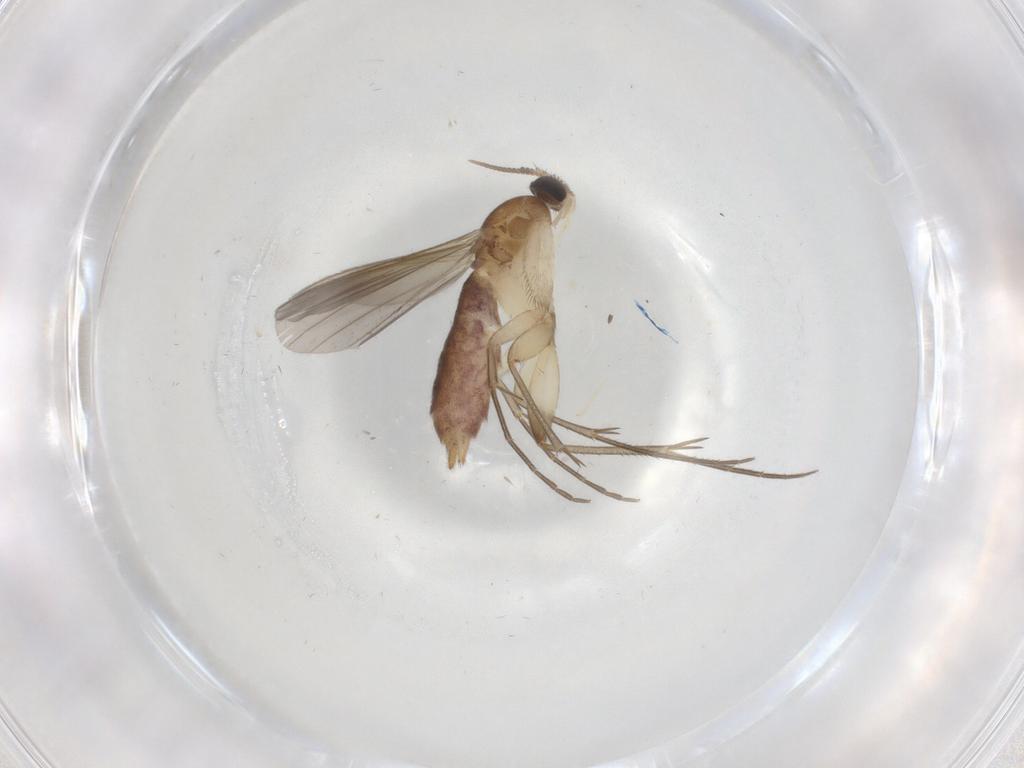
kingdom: Animalia
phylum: Arthropoda
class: Insecta
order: Diptera
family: Mycetophilidae
